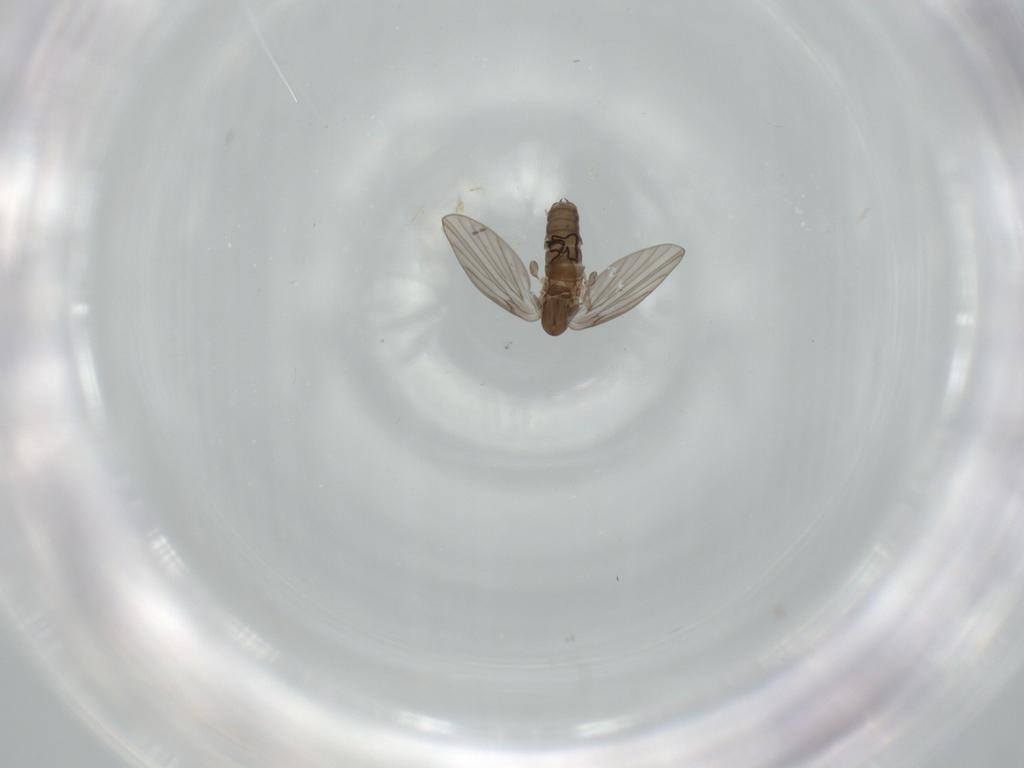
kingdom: Animalia
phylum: Arthropoda
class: Insecta
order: Diptera
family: Psychodidae
